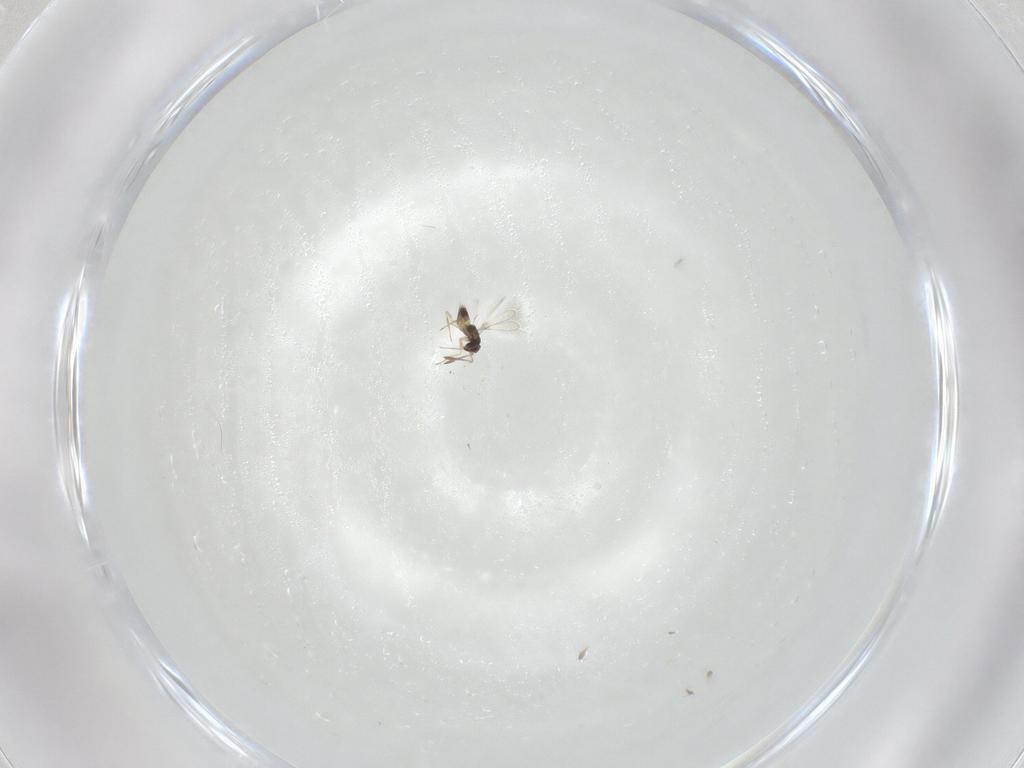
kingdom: Animalia
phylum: Arthropoda
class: Insecta
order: Hymenoptera
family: Mymaridae
